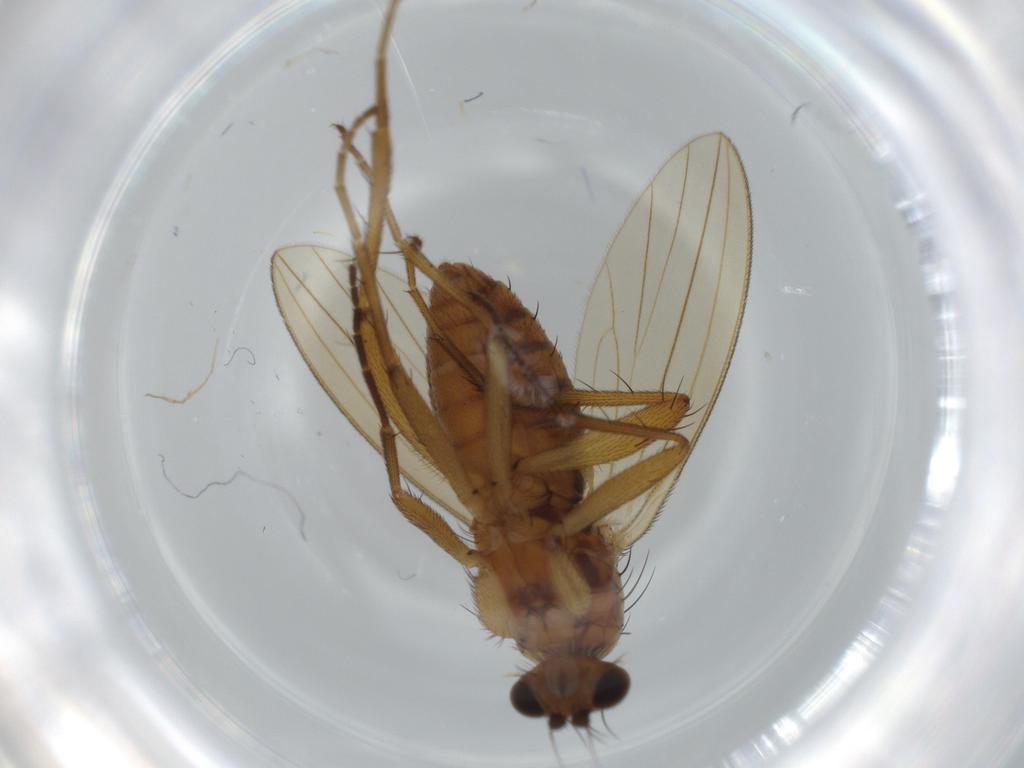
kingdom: Animalia
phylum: Arthropoda
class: Insecta
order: Diptera
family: Lonchopteridae
